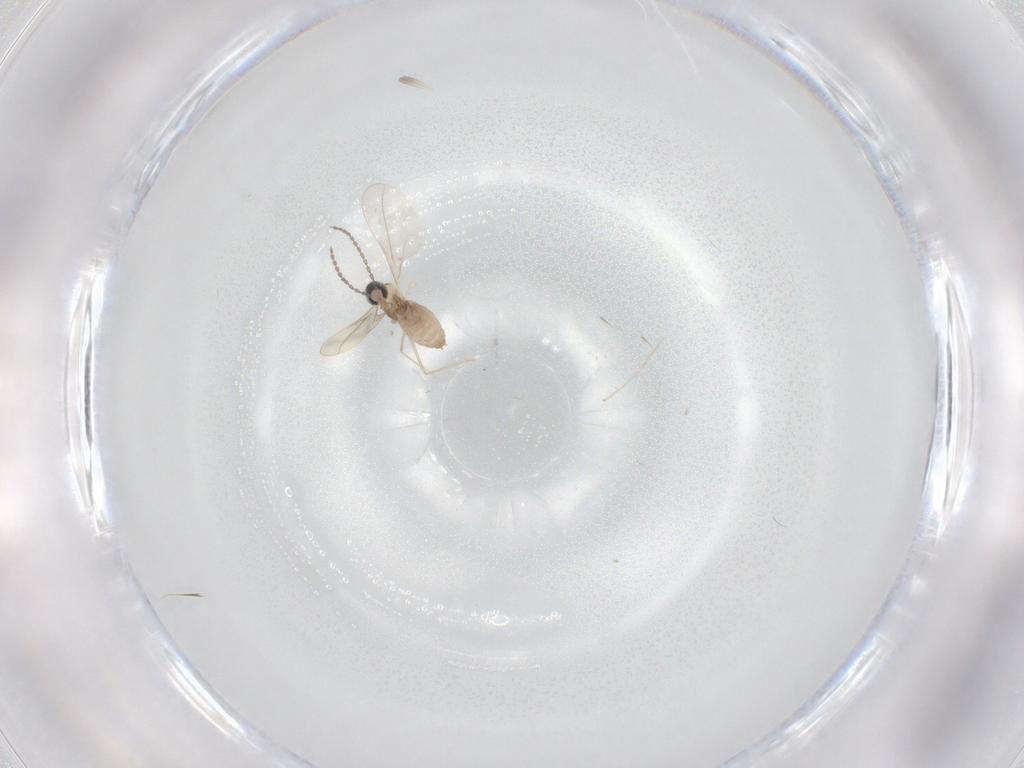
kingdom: Animalia
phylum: Arthropoda
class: Insecta
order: Diptera
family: Cecidomyiidae
